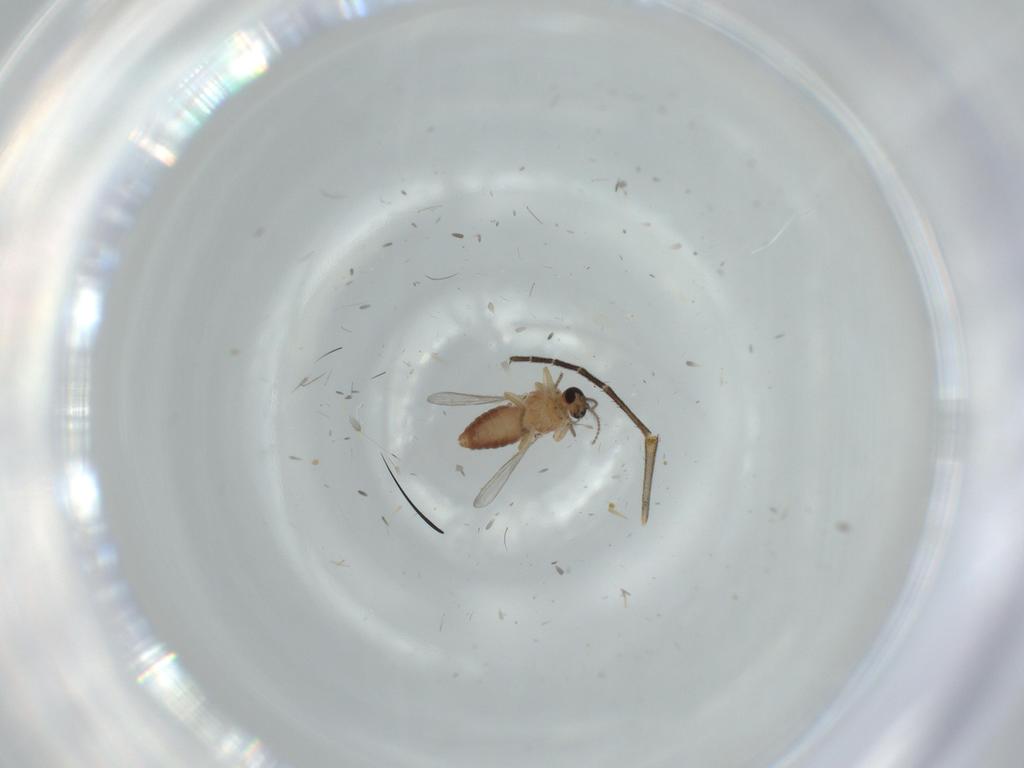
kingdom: Animalia
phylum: Arthropoda
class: Insecta
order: Diptera
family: Ceratopogonidae
